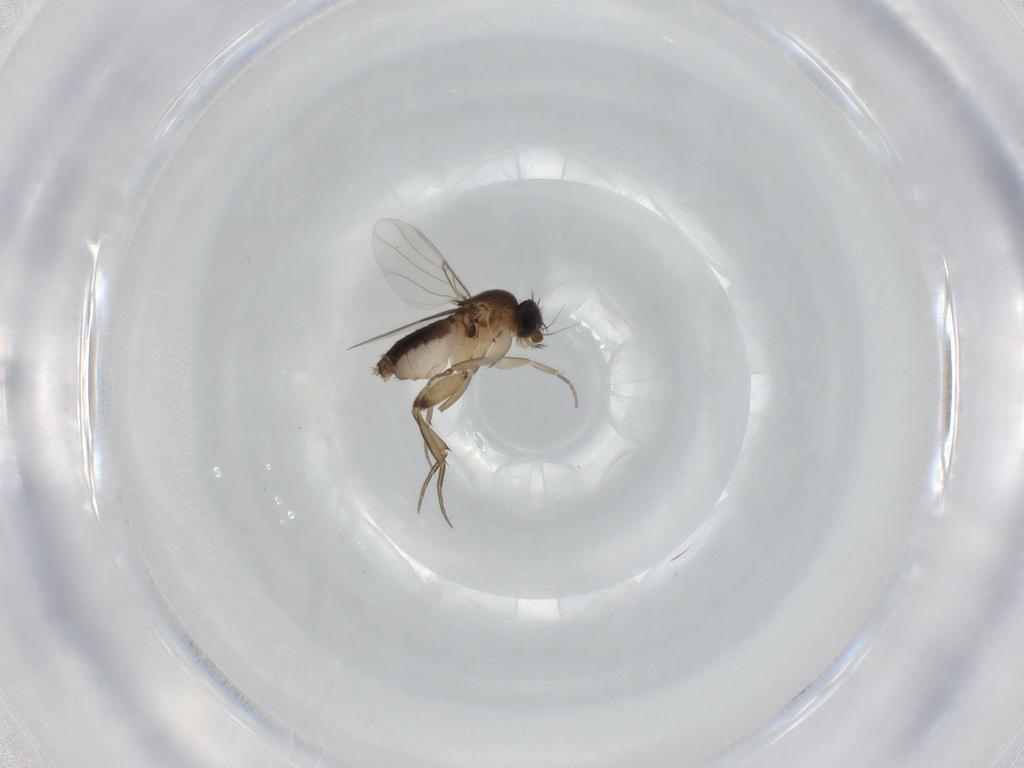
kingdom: Animalia
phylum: Arthropoda
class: Insecta
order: Diptera
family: Phoridae
